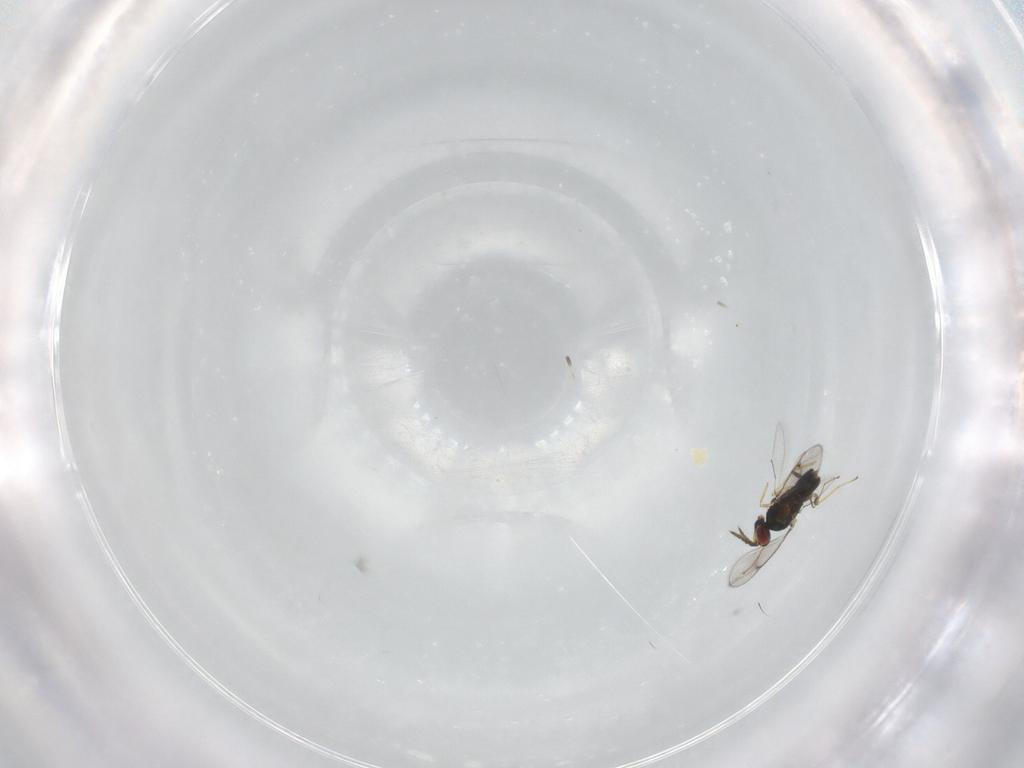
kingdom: Animalia
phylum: Arthropoda
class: Insecta
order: Hymenoptera
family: Eulophidae
